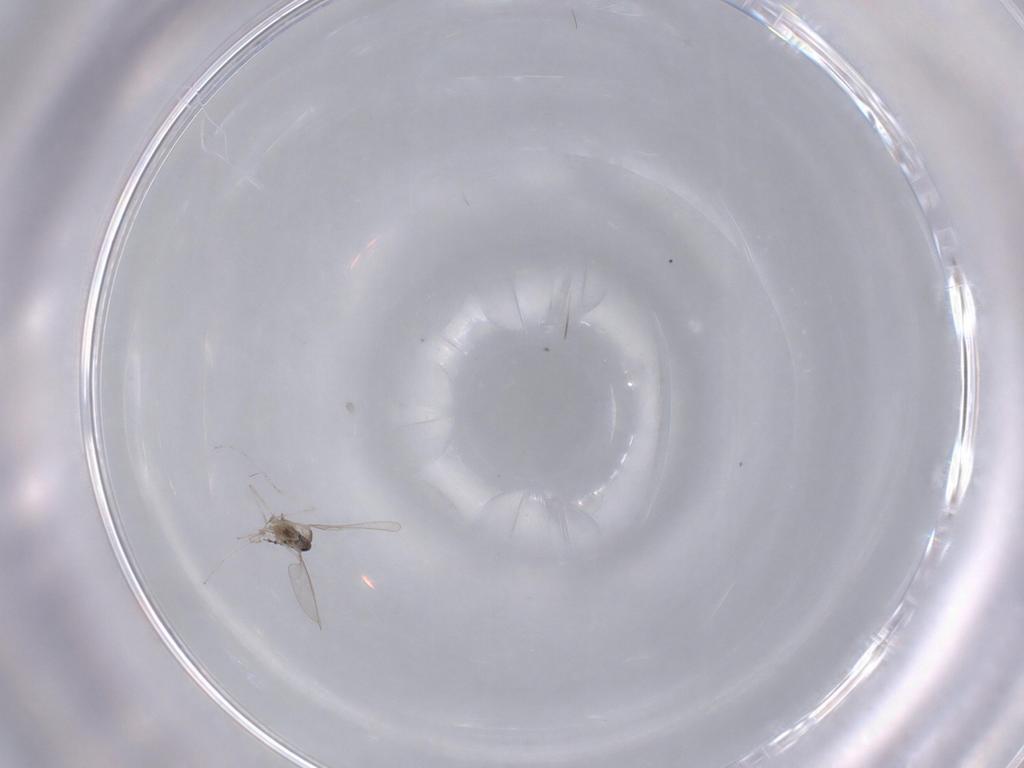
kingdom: Animalia
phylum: Arthropoda
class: Insecta
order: Diptera
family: Cecidomyiidae
